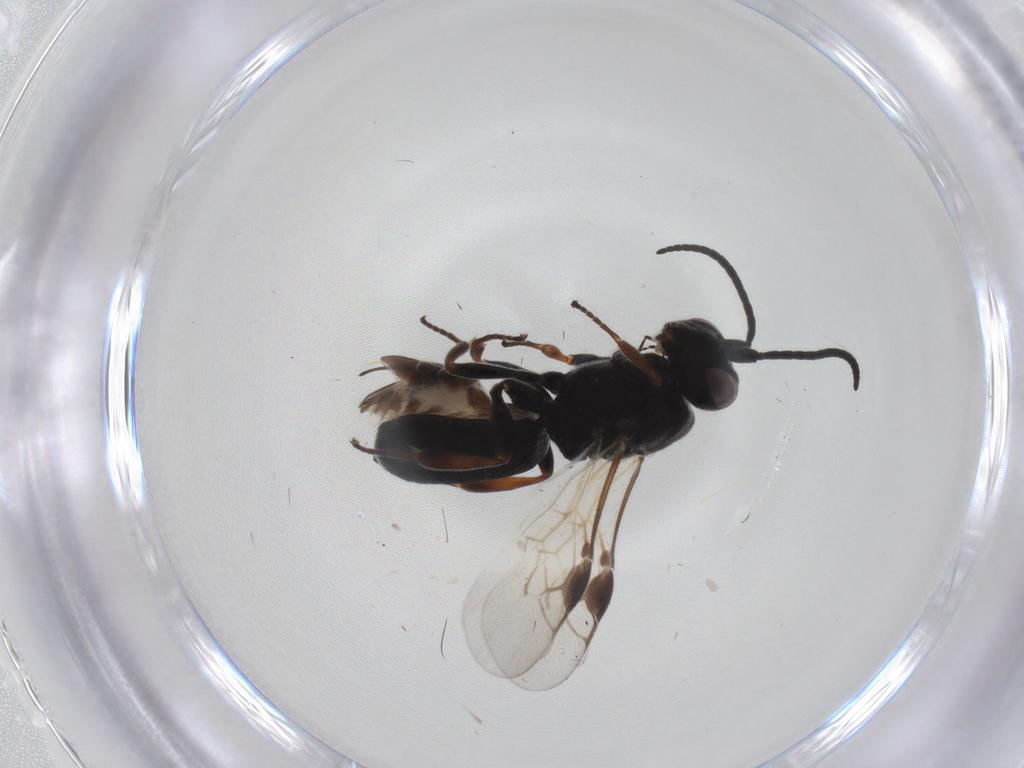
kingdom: Animalia
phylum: Arthropoda
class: Insecta
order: Hymenoptera
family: Braconidae
